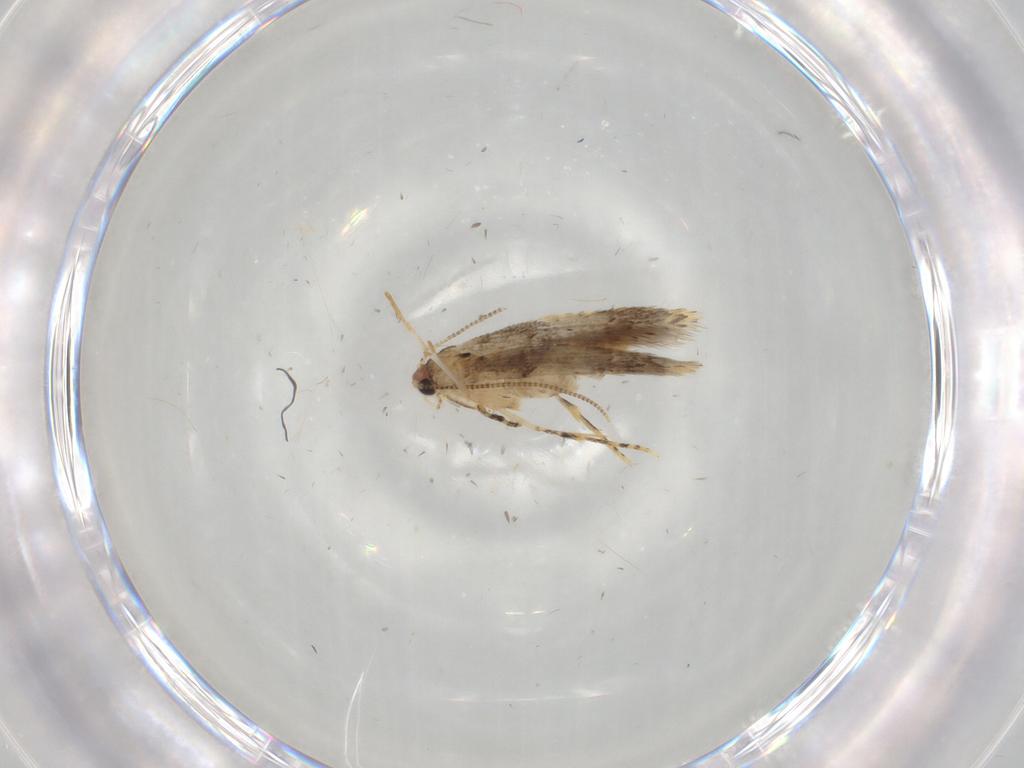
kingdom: Animalia
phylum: Arthropoda
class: Insecta
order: Lepidoptera
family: Tineidae
